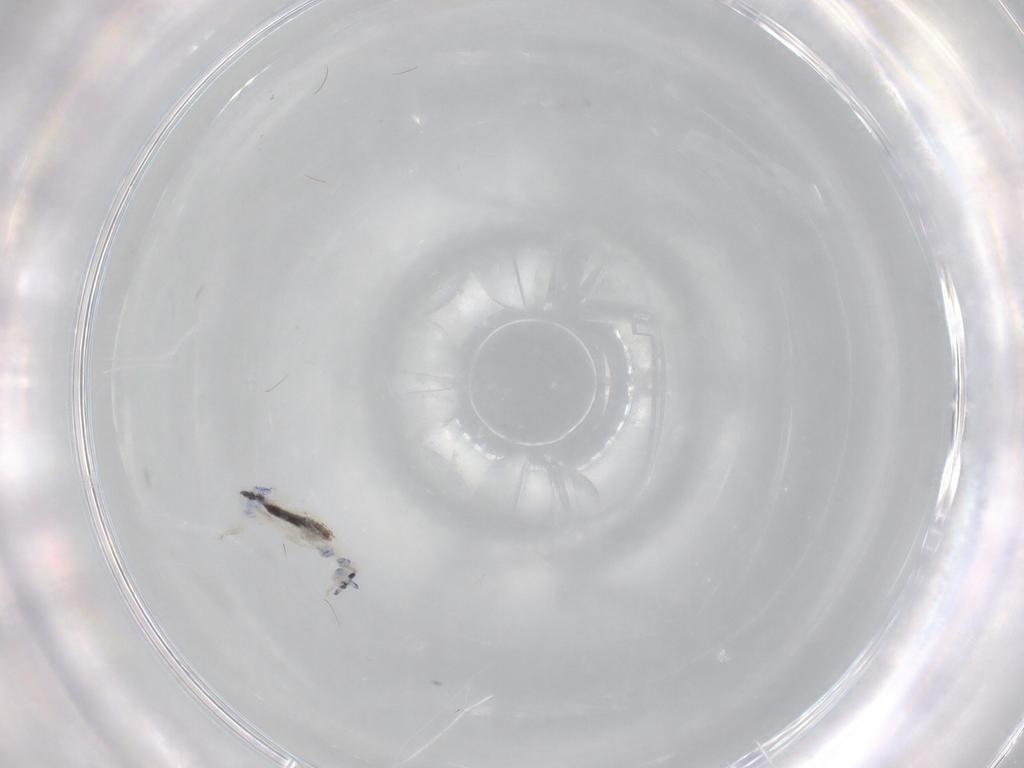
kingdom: Animalia
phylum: Arthropoda
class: Collembola
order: Entomobryomorpha
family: Entomobryidae
